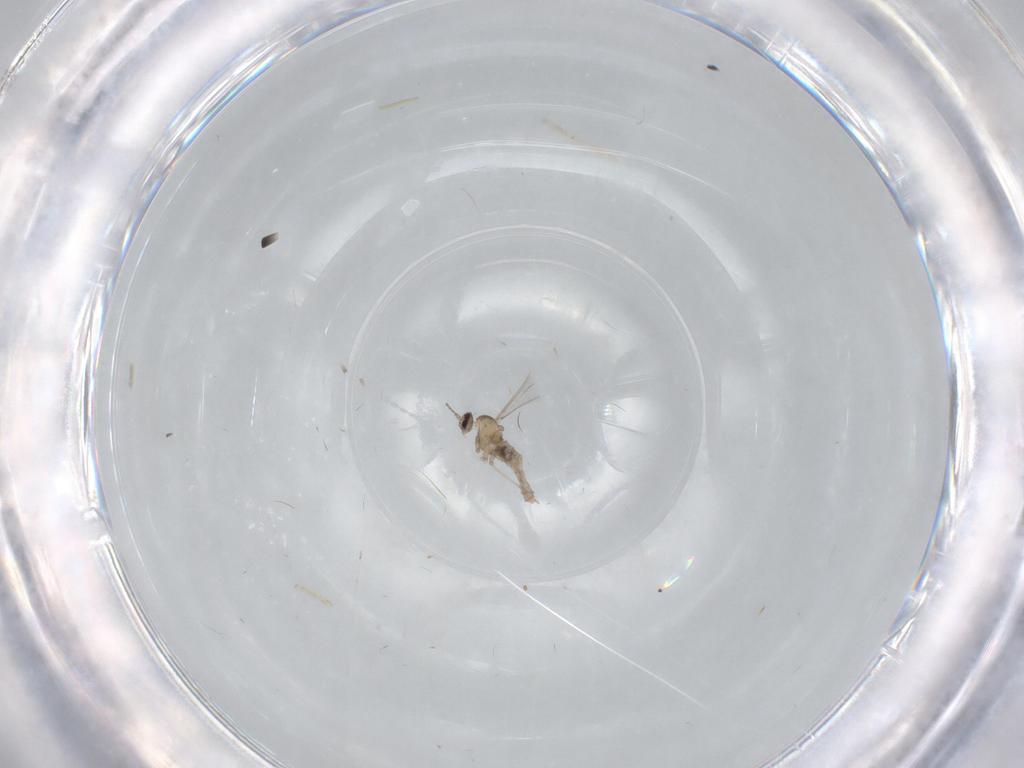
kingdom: Animalia
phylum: Arthropoda
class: Insecta
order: Diptera
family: Cecidomyiidae
